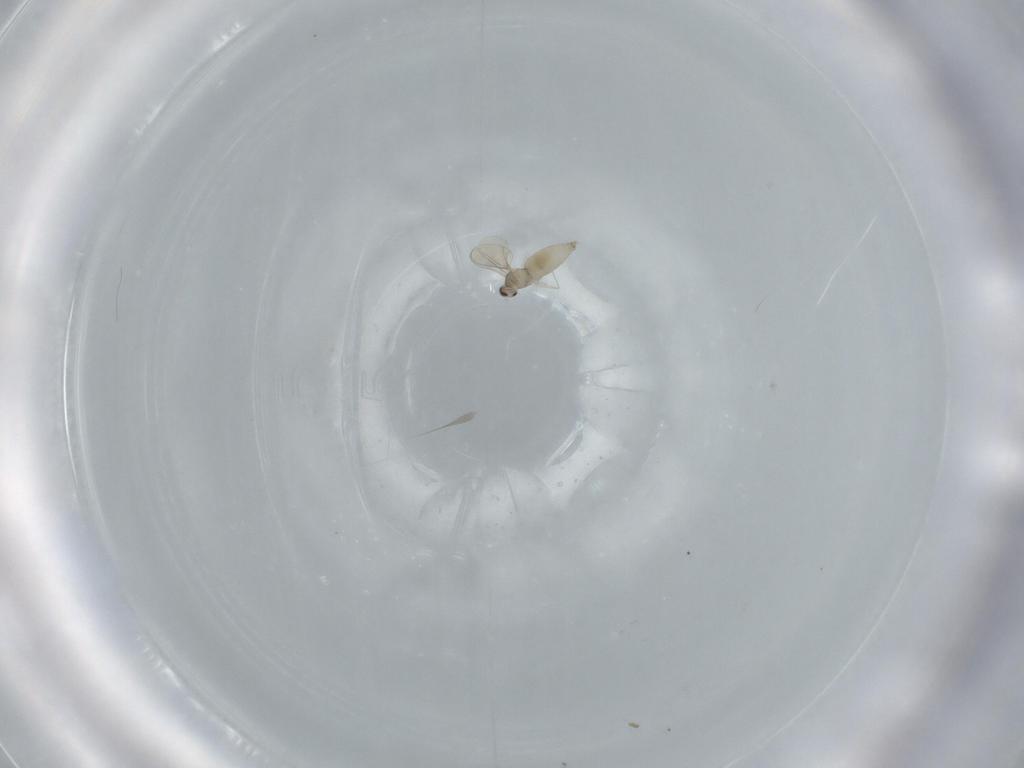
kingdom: Animalia
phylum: Arthropoda
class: Insecta
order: Diptera
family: Cecidomyiidae
